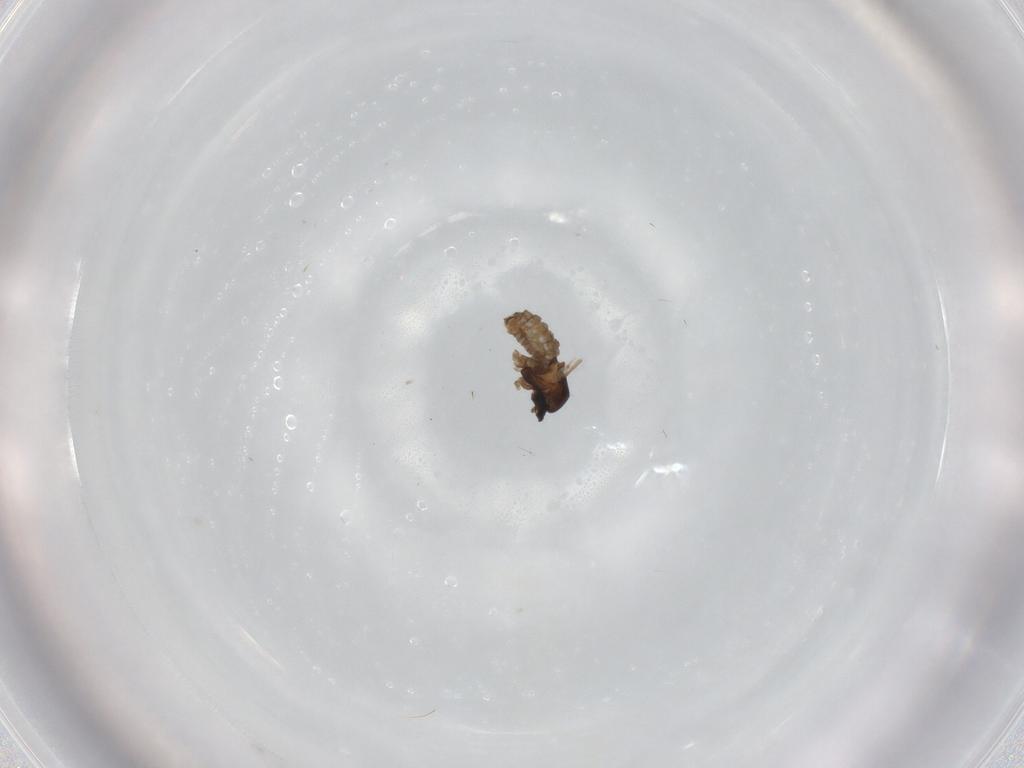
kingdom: Animalia
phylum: Arthropoda
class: Insecta
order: Diptera
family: Cecidomyiidae
